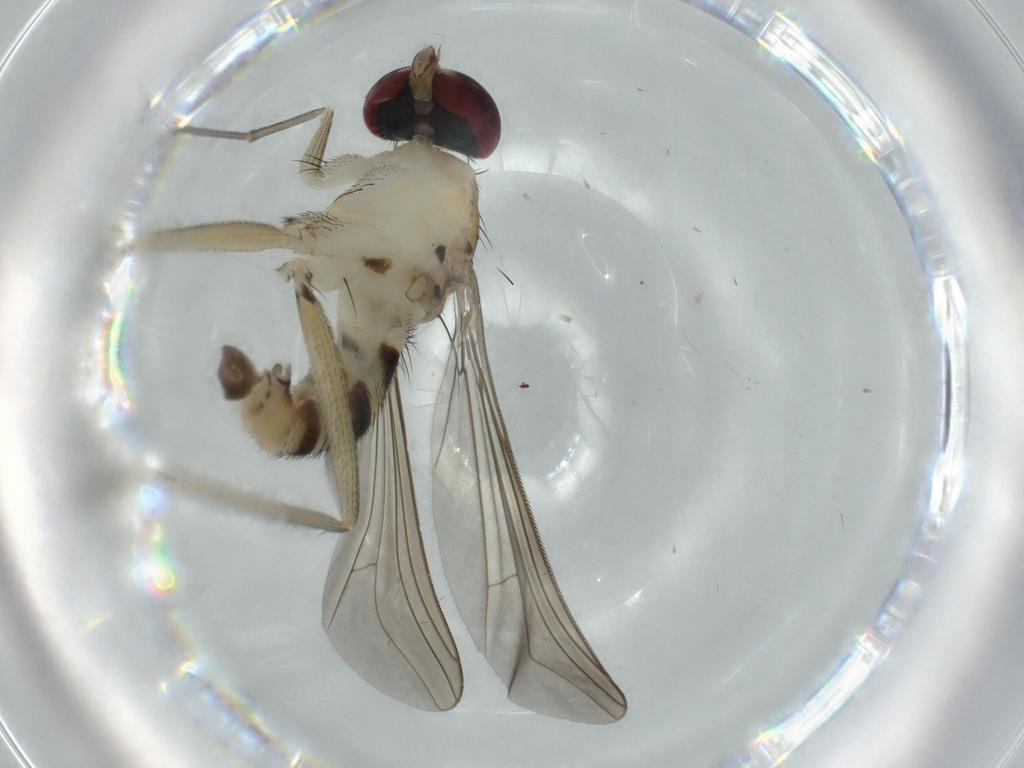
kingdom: Animalia
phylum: Arthropoda
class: Insecta
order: Diptera
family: Dolichopodidae
